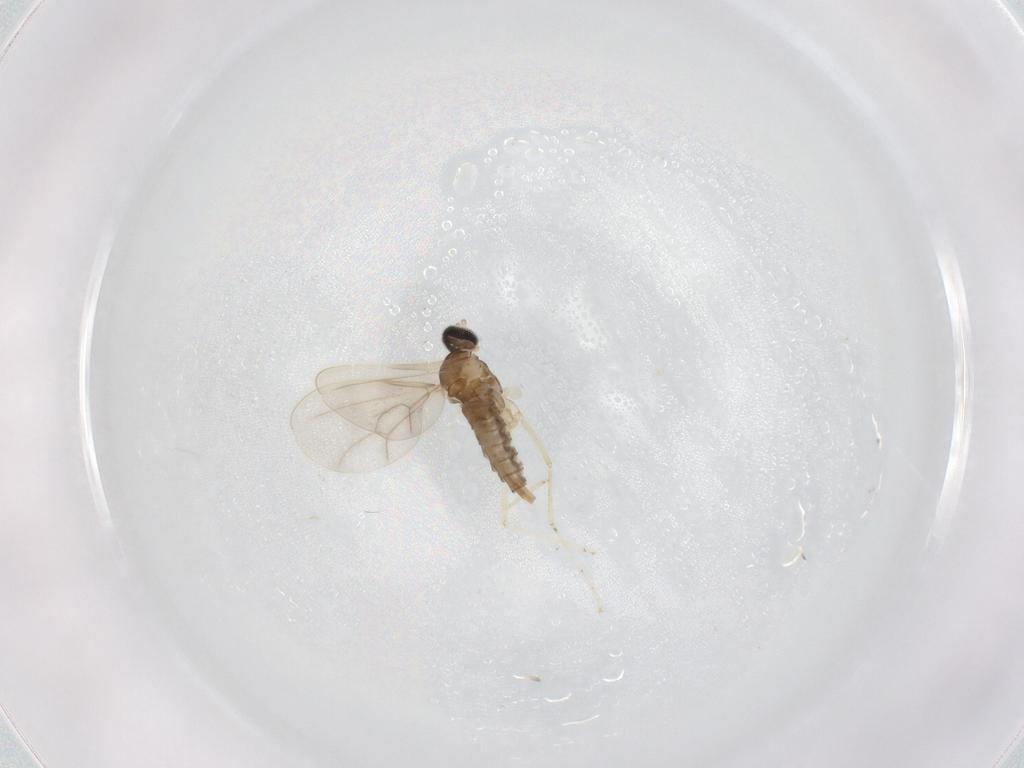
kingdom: Animalia
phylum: Arthropoda
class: Insecta
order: Diptera
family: Cecidomyiidae
